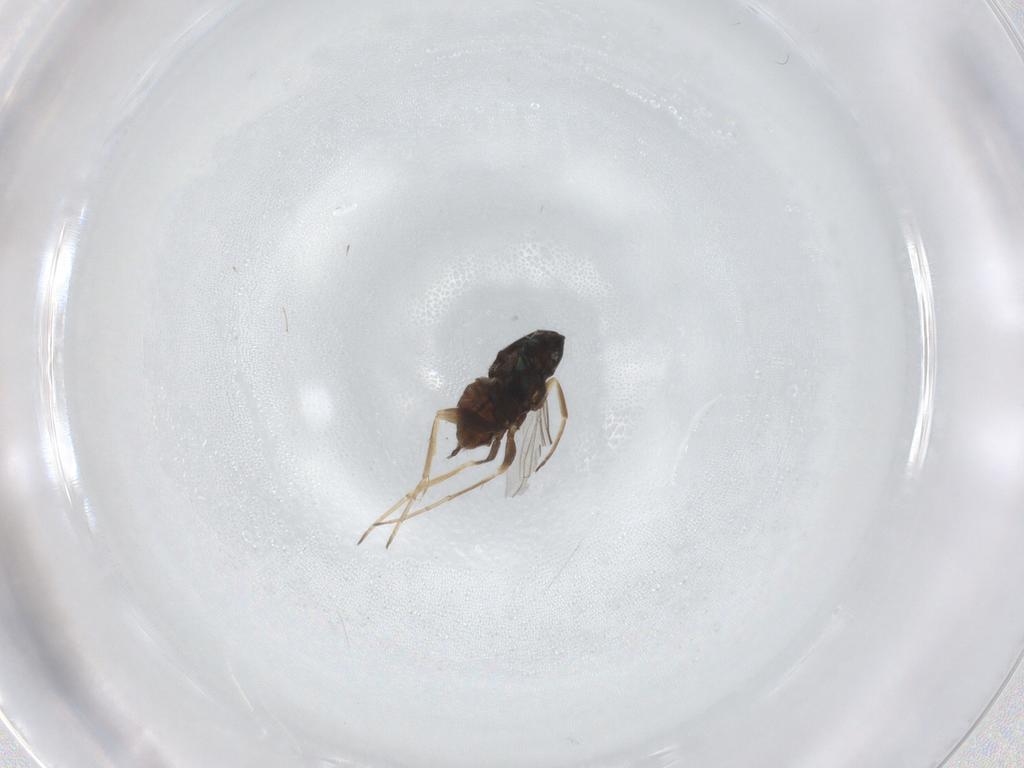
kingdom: Animalia
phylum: Arthropoda
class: Insecta
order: Diptera
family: Dolichopodidae
